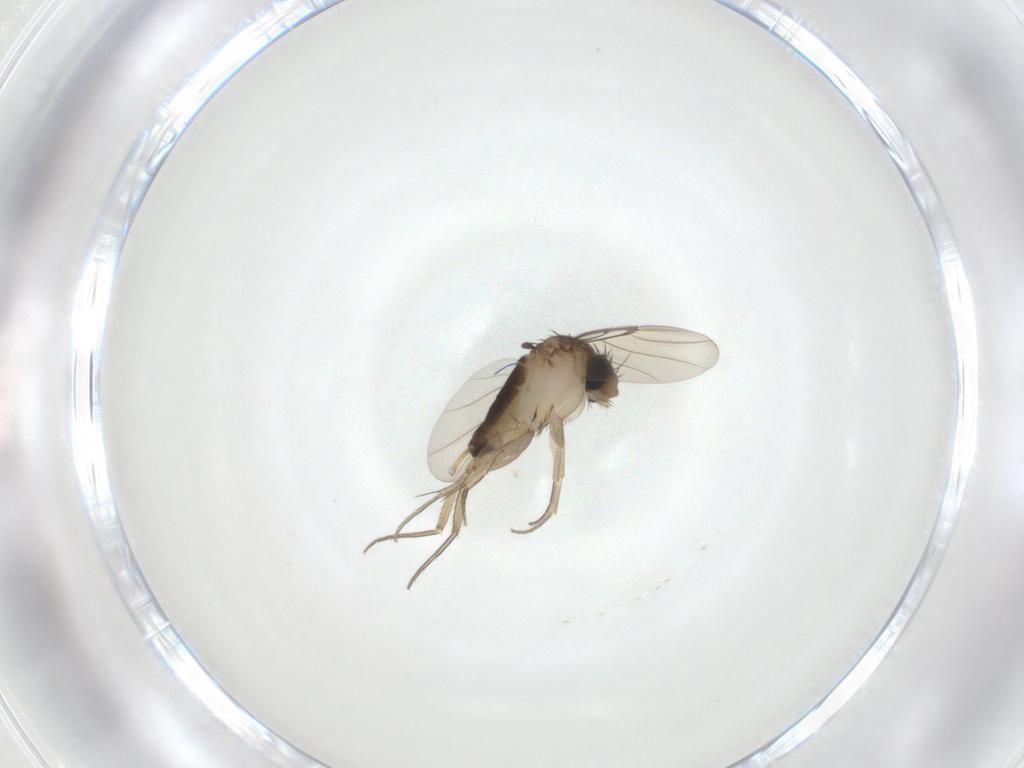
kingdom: Animalia
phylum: Arthropoda
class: Insecta
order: Diptera
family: Phoridae
